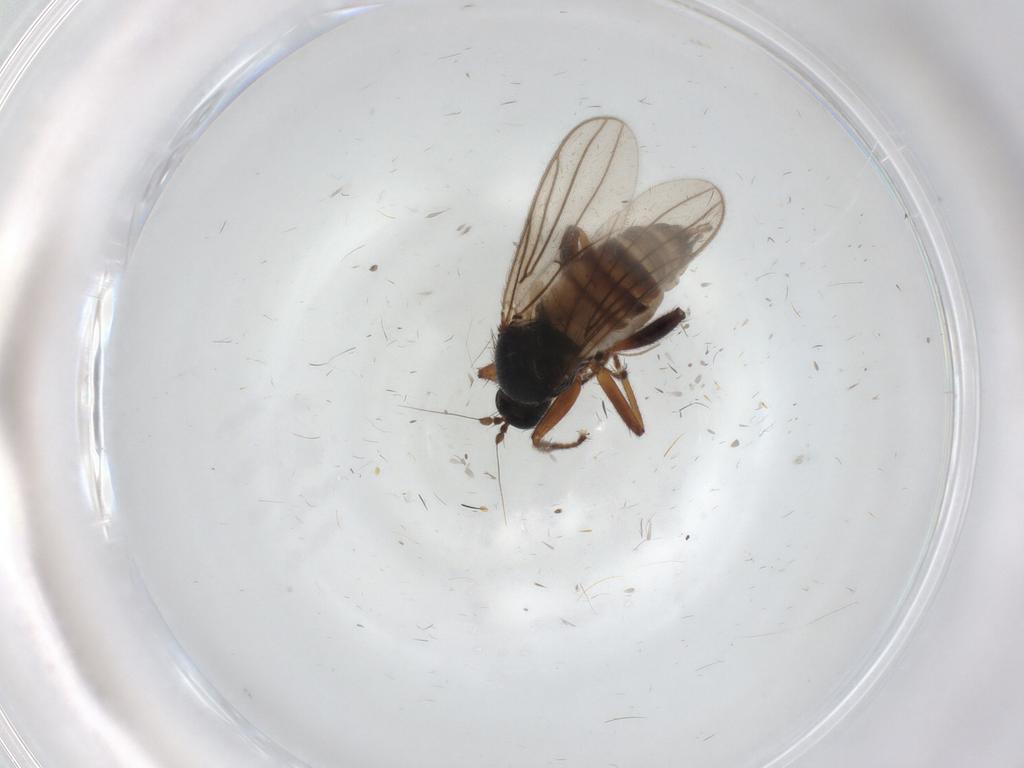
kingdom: Animalia
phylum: Arthropoda
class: Insecta
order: Diptera
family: Hybotidae
